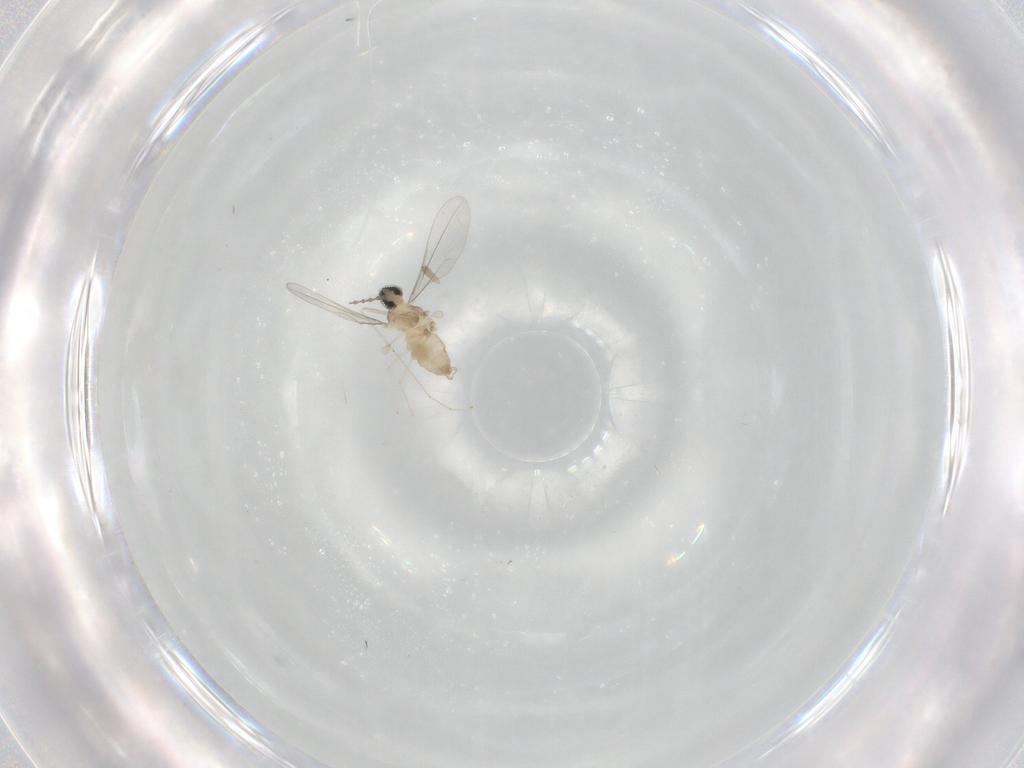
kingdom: Animalia
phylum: Arthropoda
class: Insecta
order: Diptera
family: Cecidomyiidae
